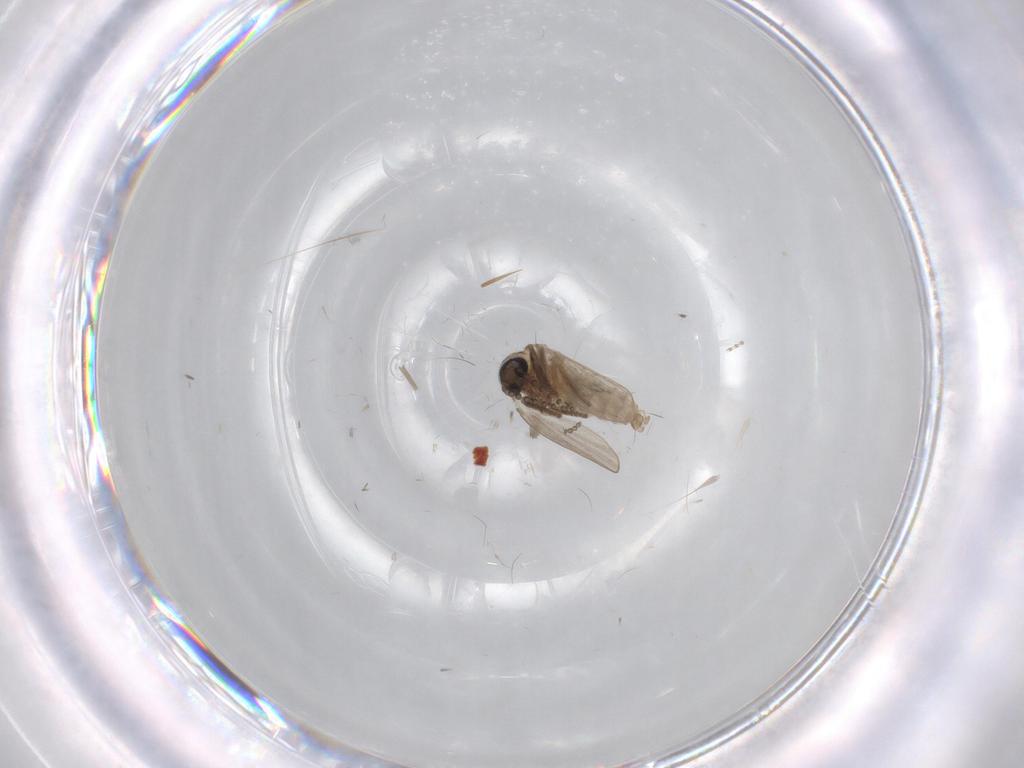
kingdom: Animalia
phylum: Arthropoda
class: Insecta
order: Diptera
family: Psychodidae
